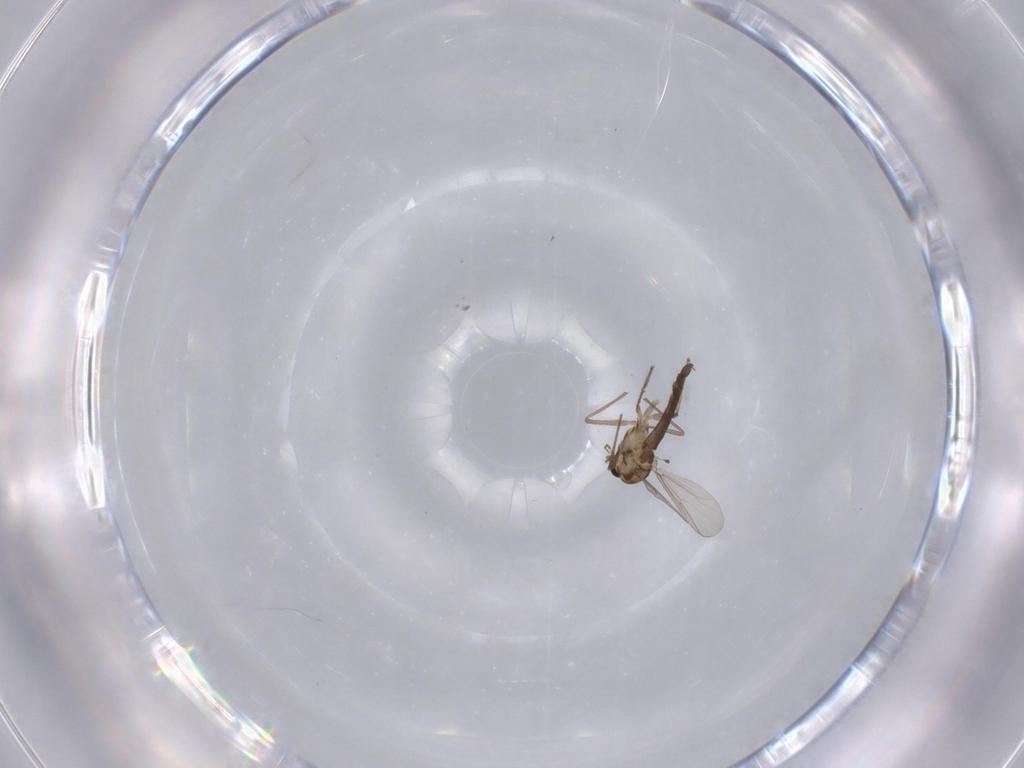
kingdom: Animalia
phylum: Arthropoda
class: Insecta
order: Diptera
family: Chironomidae
